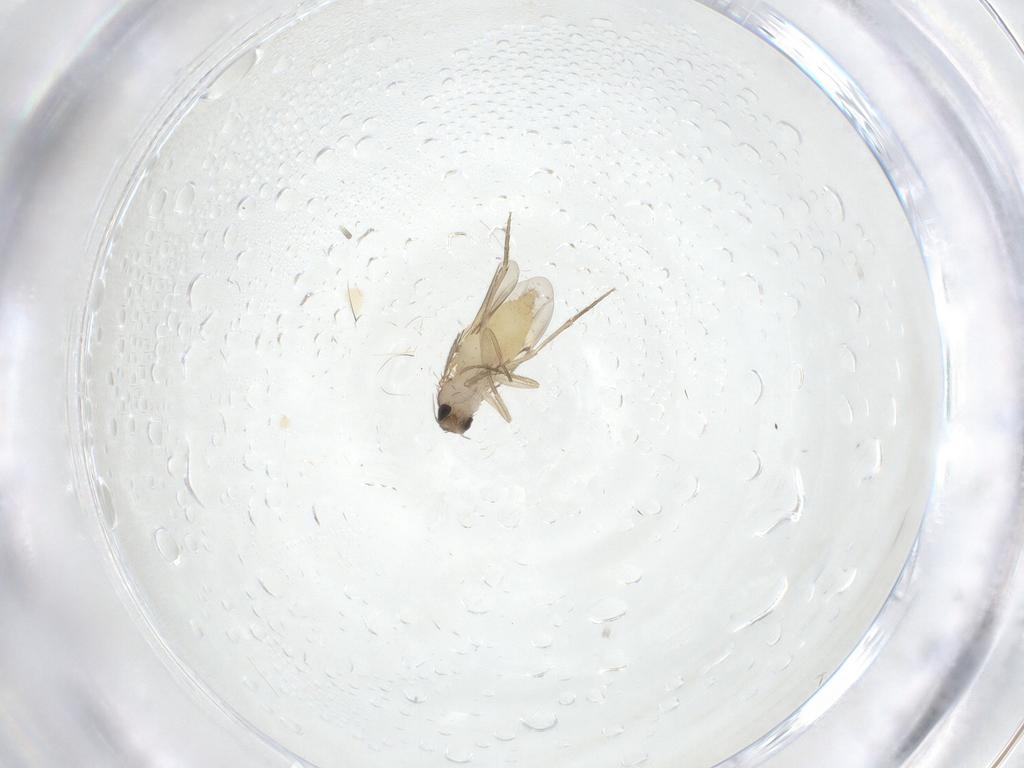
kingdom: Animalia
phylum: Arthropoda
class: Insecta
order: Diptera
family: Phoridae
